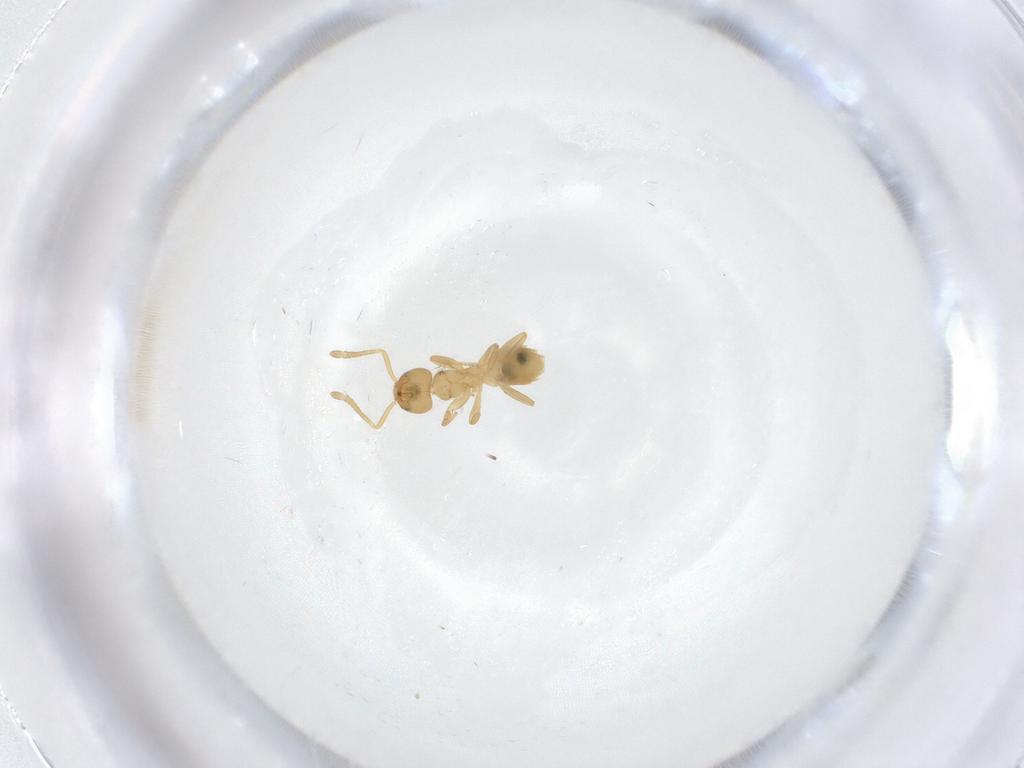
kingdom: Animalia
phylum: Arthropoda
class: Insecta
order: Hymenoptera
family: Formicidae
